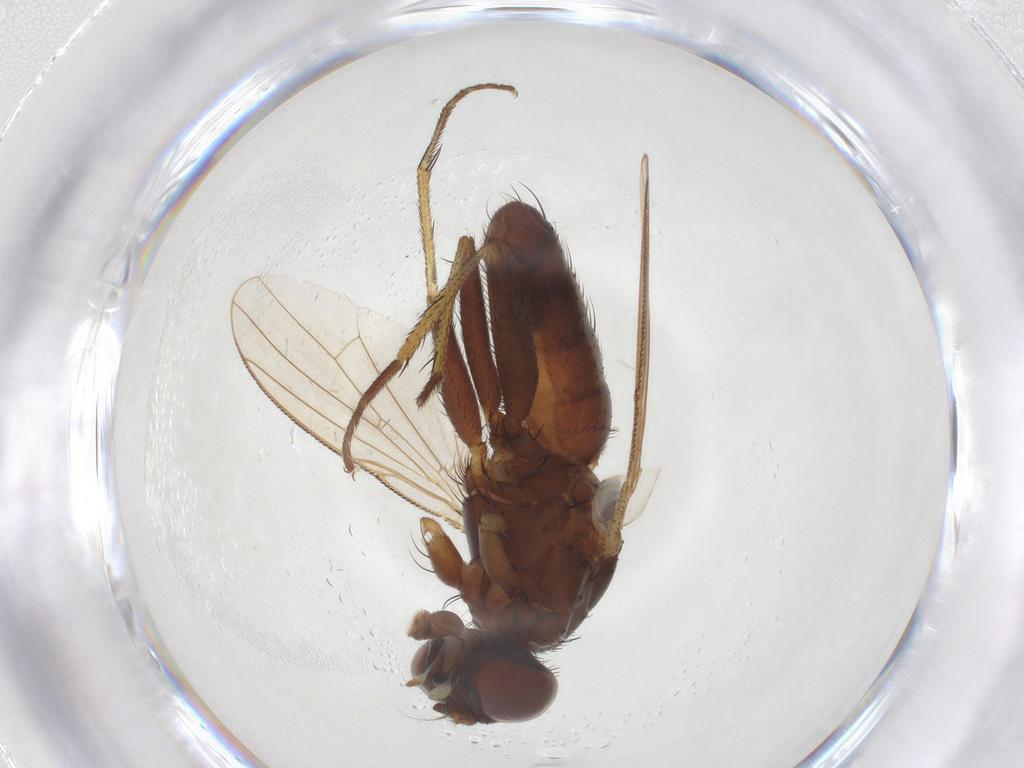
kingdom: Animalia
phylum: Arthropoda
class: Insecta
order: Diptera
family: Muscidae
